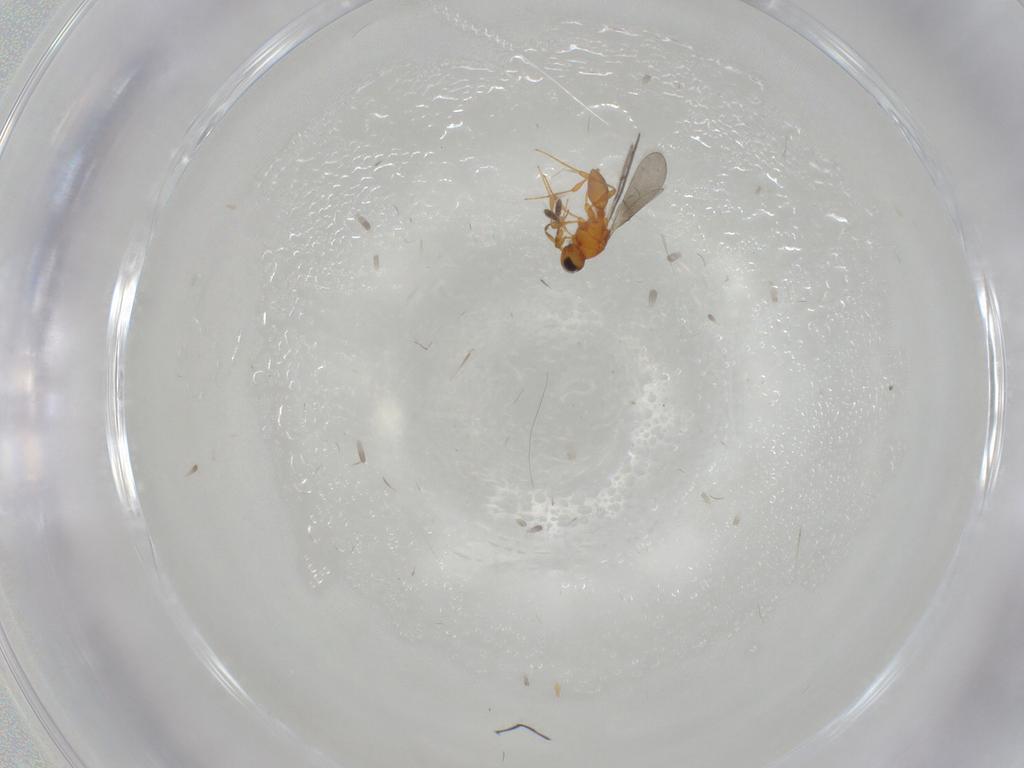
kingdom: Animalia
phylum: Arthropoda
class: Insecta
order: Hymenoptera
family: Platygastridae
